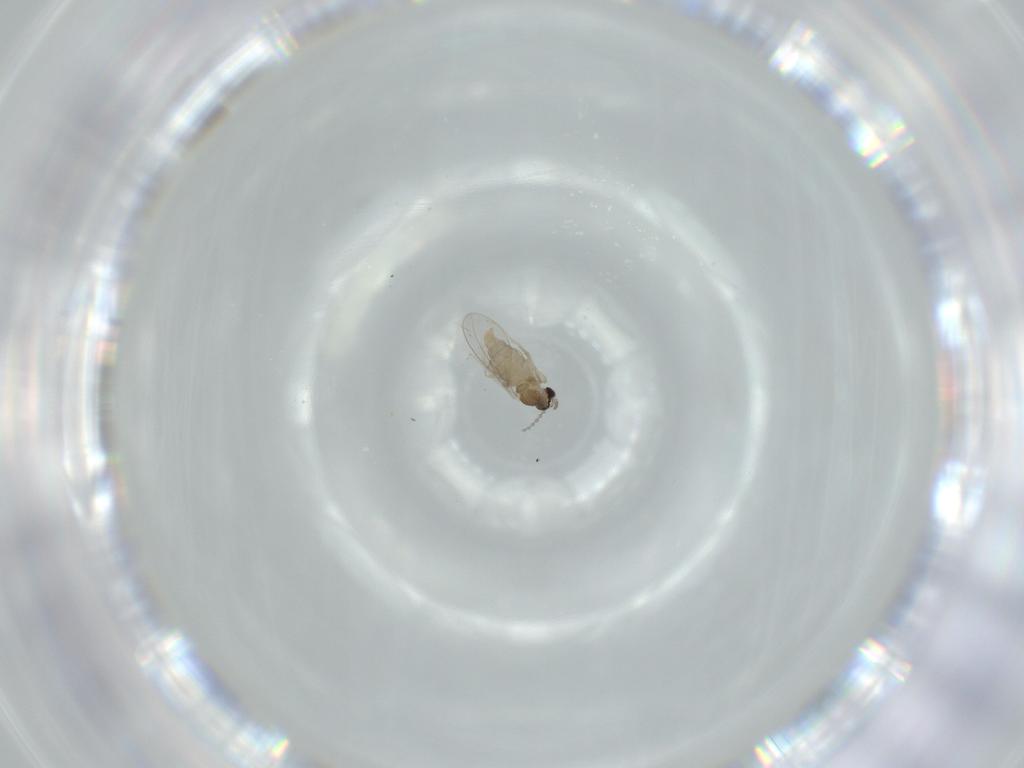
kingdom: Animalia
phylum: Arthropoda
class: Insecta
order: Diptera
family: Cecidomyiidae
